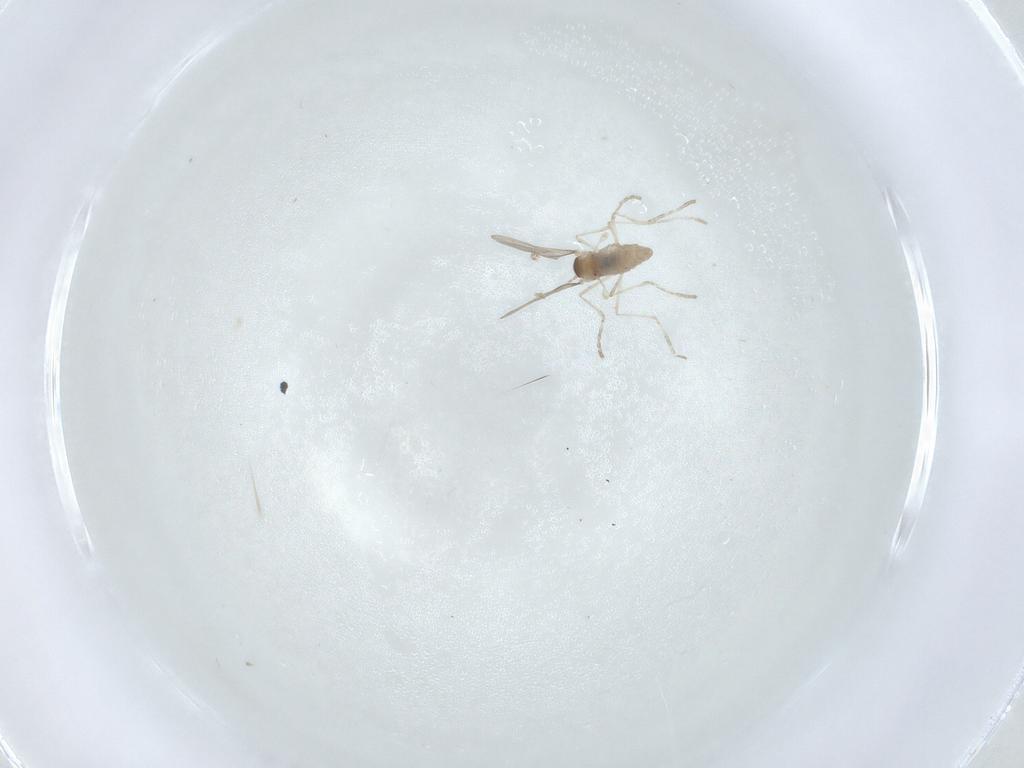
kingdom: Animalia
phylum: Arthropoda
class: Insecta
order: Diptera
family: Cecidomyiidae
